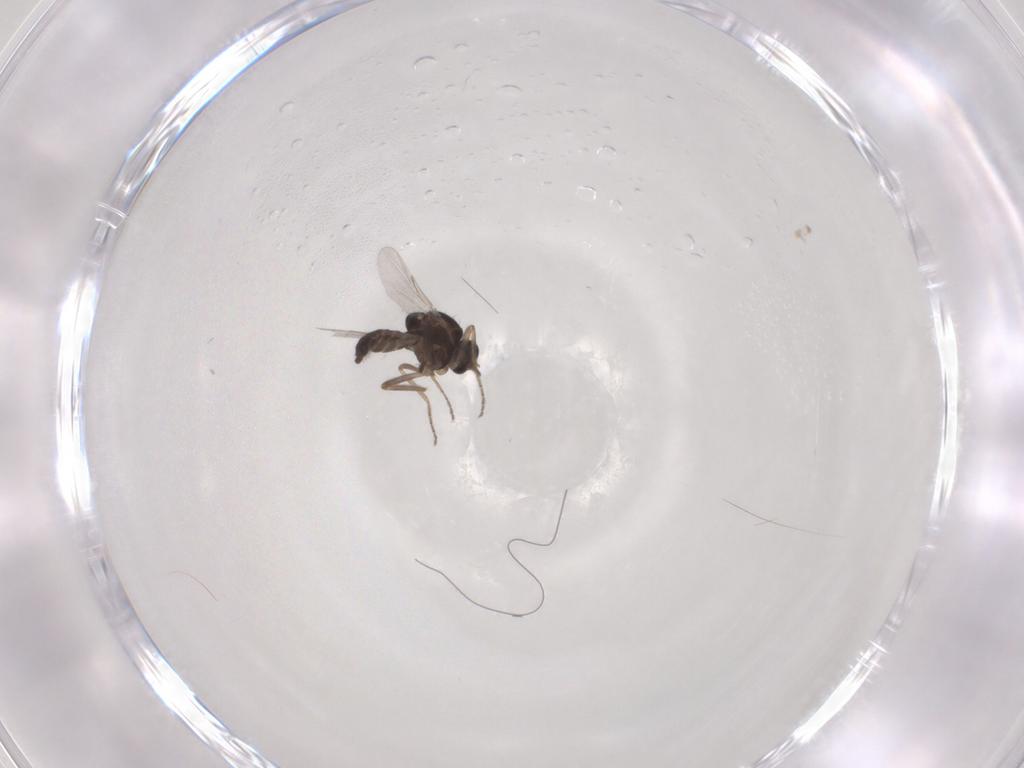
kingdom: Animalia
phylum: Arthropoda
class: Insecta
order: Diptera
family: Ceratopogonidae
